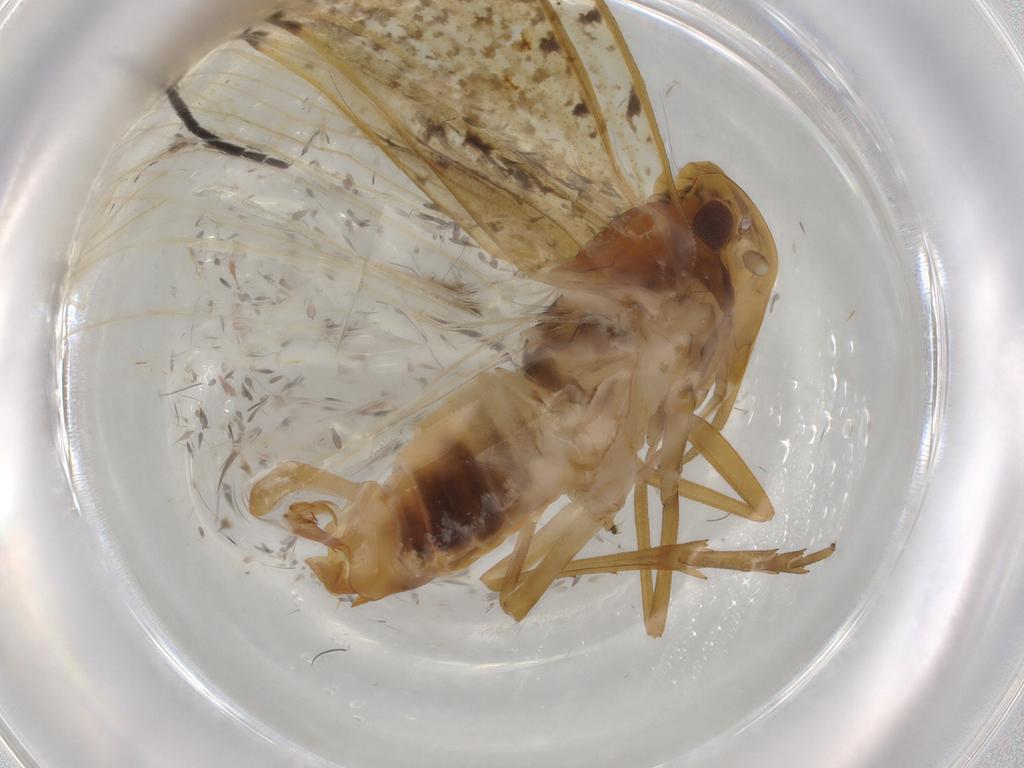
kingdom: Animalia
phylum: Arthropoda
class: Insecta
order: Hemiptera
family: Cixiidae
